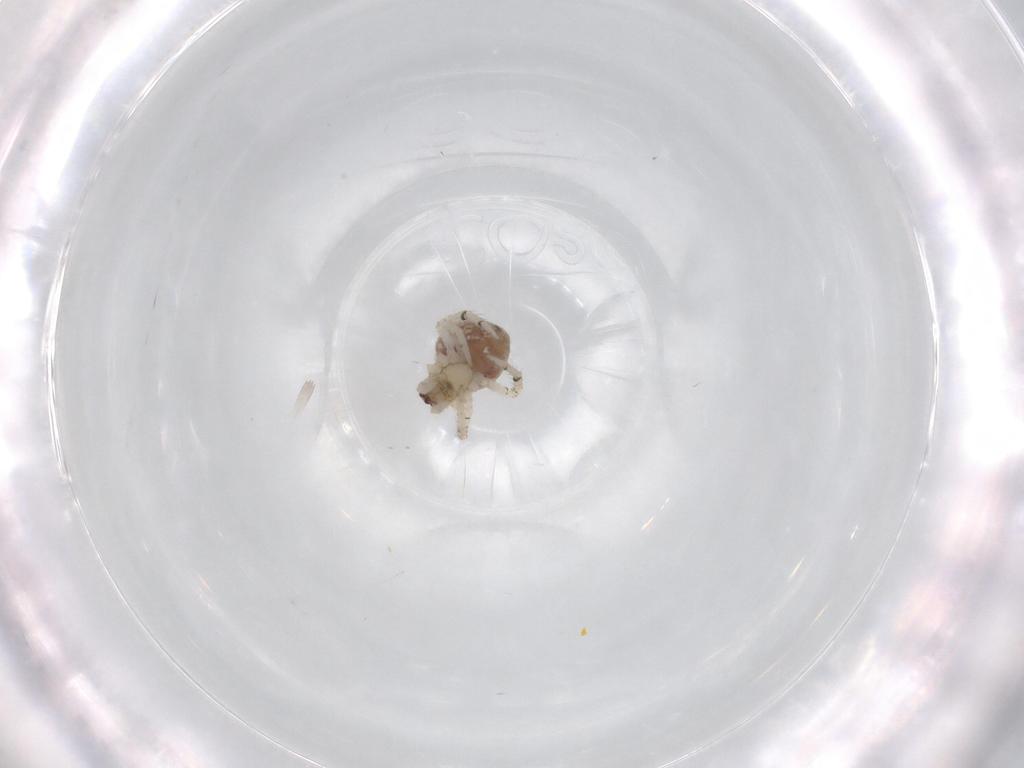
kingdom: Animalia
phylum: Arthropoda
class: Arachnida
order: Araneae
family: Theridiidae
